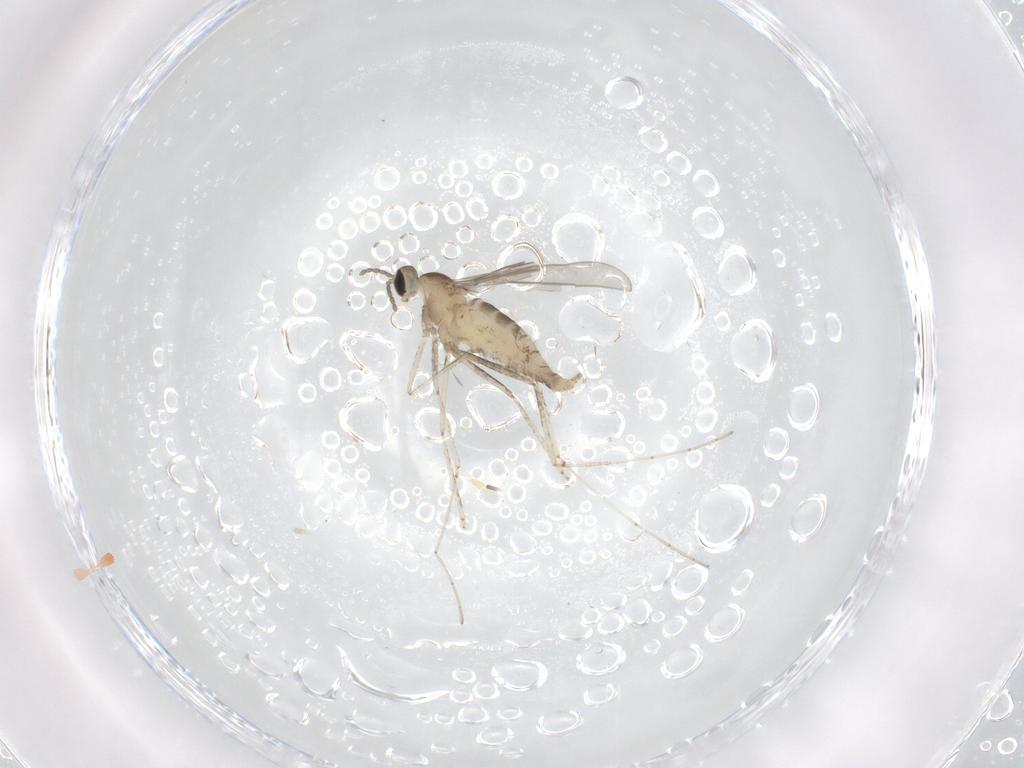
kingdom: Animalia
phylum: Arthropoda
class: Insecta
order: Diptera
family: Cecidomyiidae
